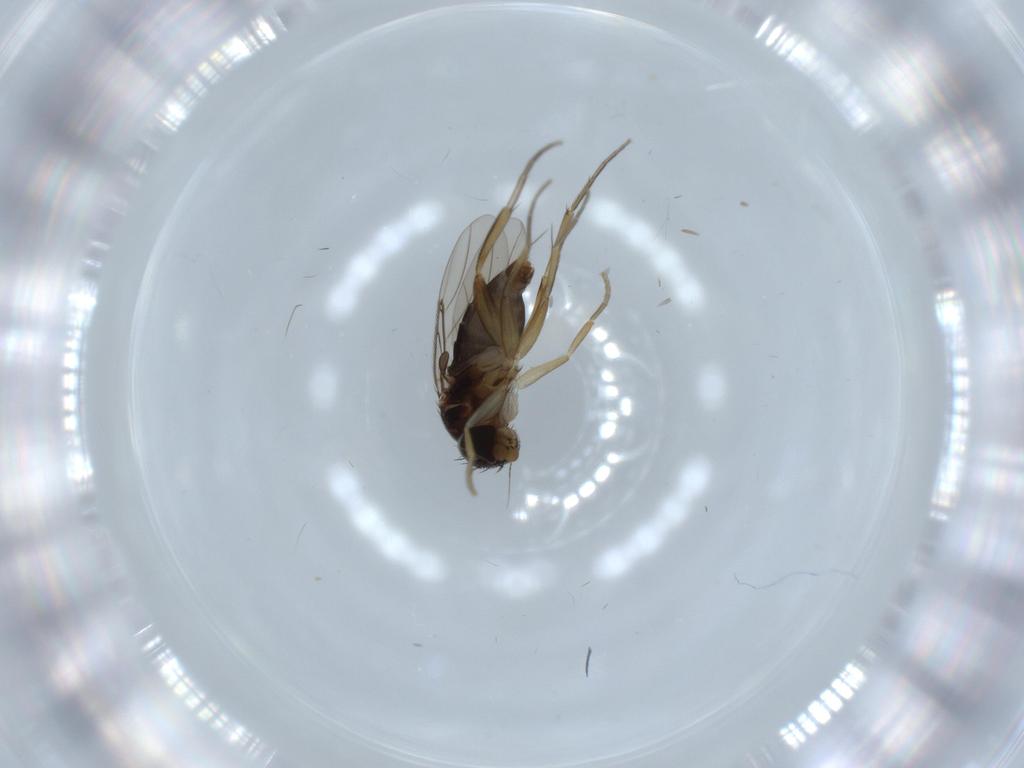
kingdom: Animalia
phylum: Arthropoda
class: Insecta
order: Diptera
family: Phoridae
